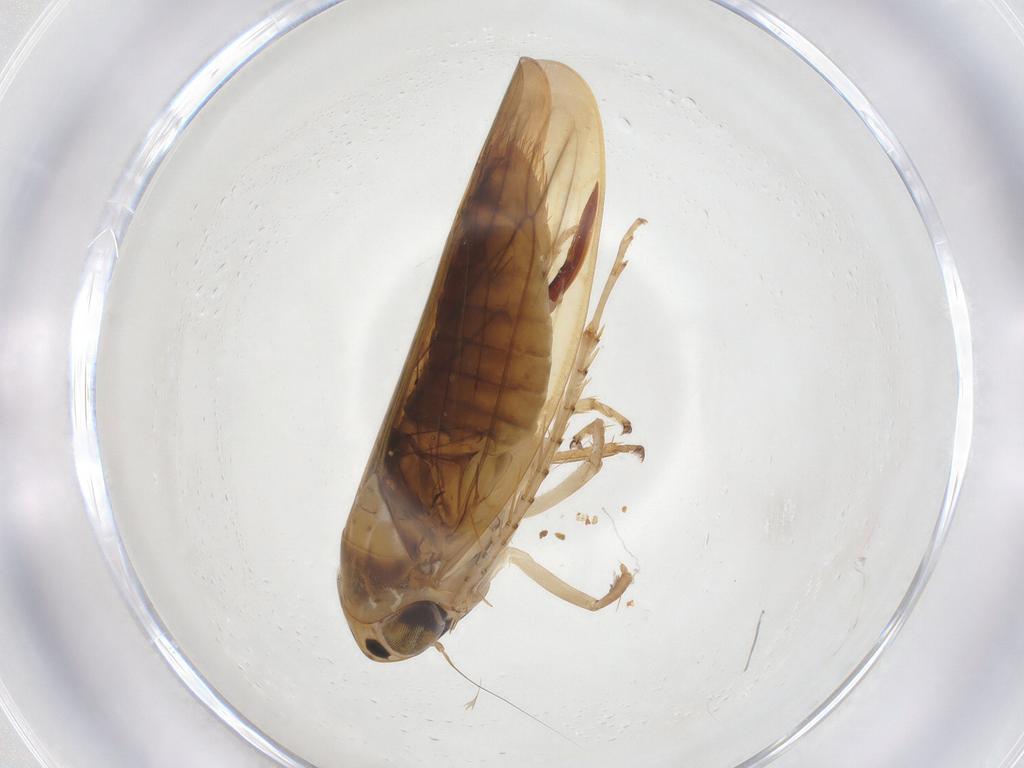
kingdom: Animalia
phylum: Arthropoda
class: Insecta
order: Hemiptera
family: Cicadellidae
